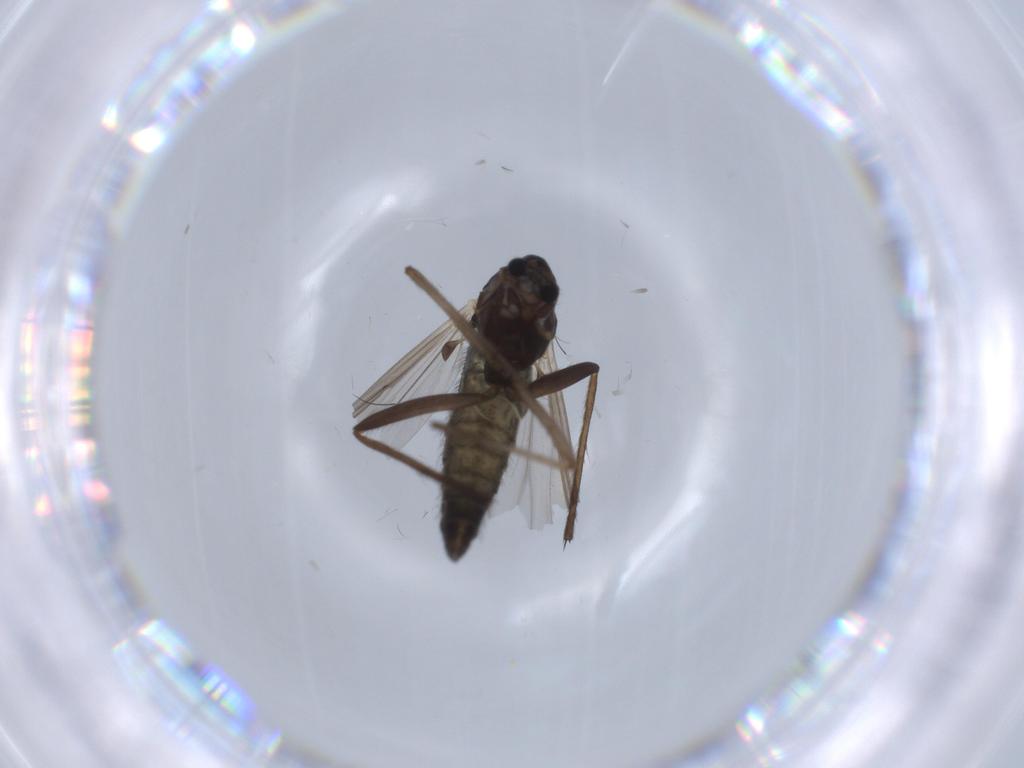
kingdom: Animalia
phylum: Arthropoda
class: Insecta
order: Diptera
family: Chironomidae
